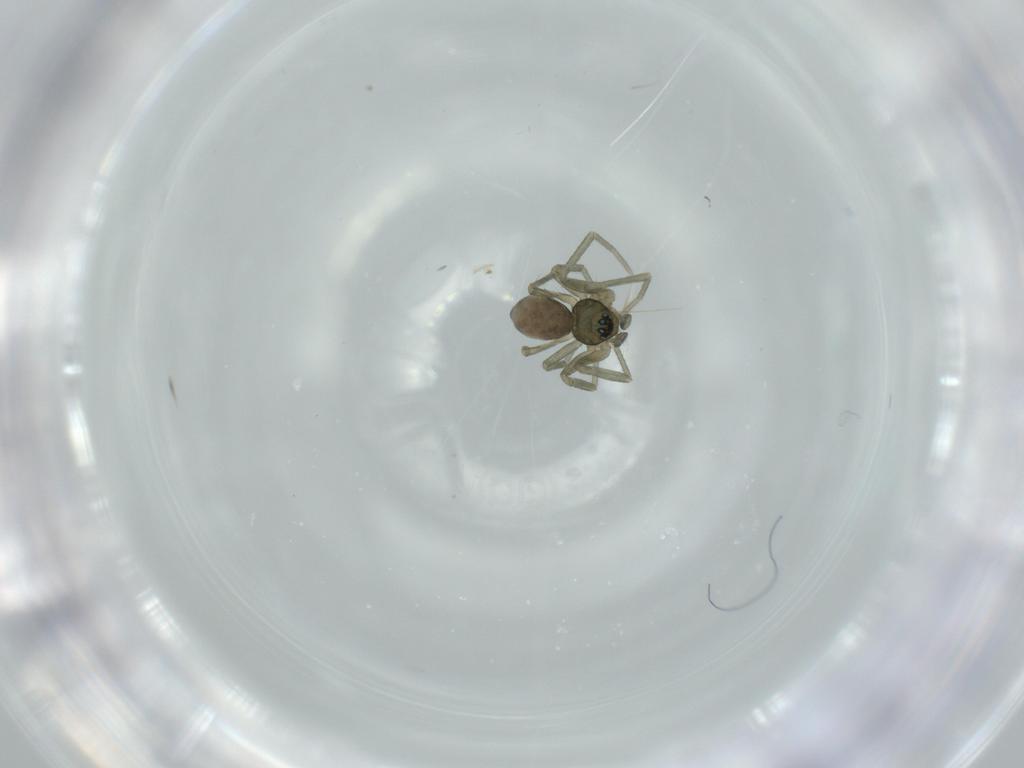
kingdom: Animalia
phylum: Arthropoda
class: Arachnida
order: Araneae
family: Linyphiidae
